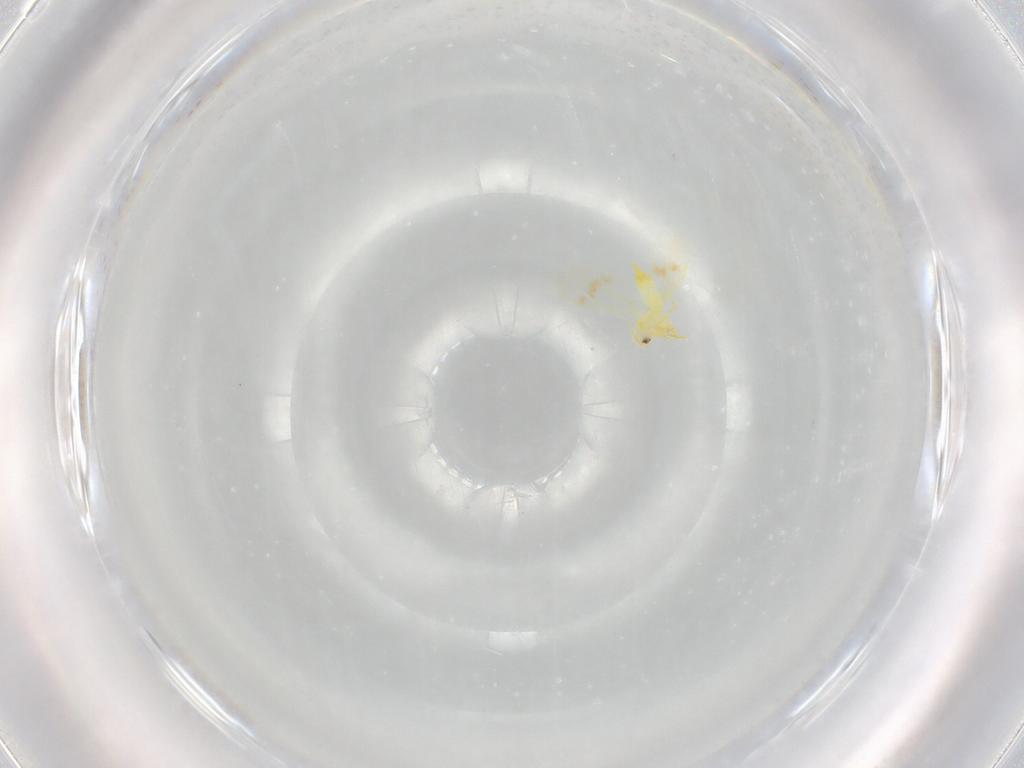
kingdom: Animalia
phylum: Arthropoda
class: Insecta
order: Hemiptera
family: Aleyrodidae
